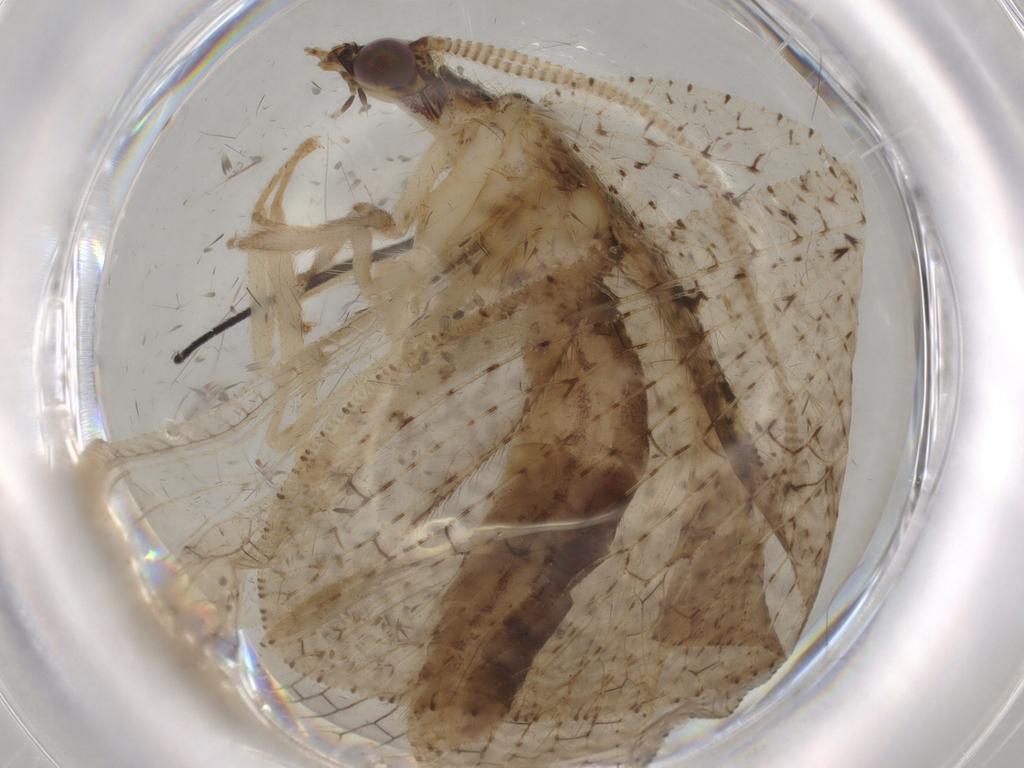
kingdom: Animalia
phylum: Arthropoda
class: Insecta
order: Neuroptera
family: Hemerobiidae
